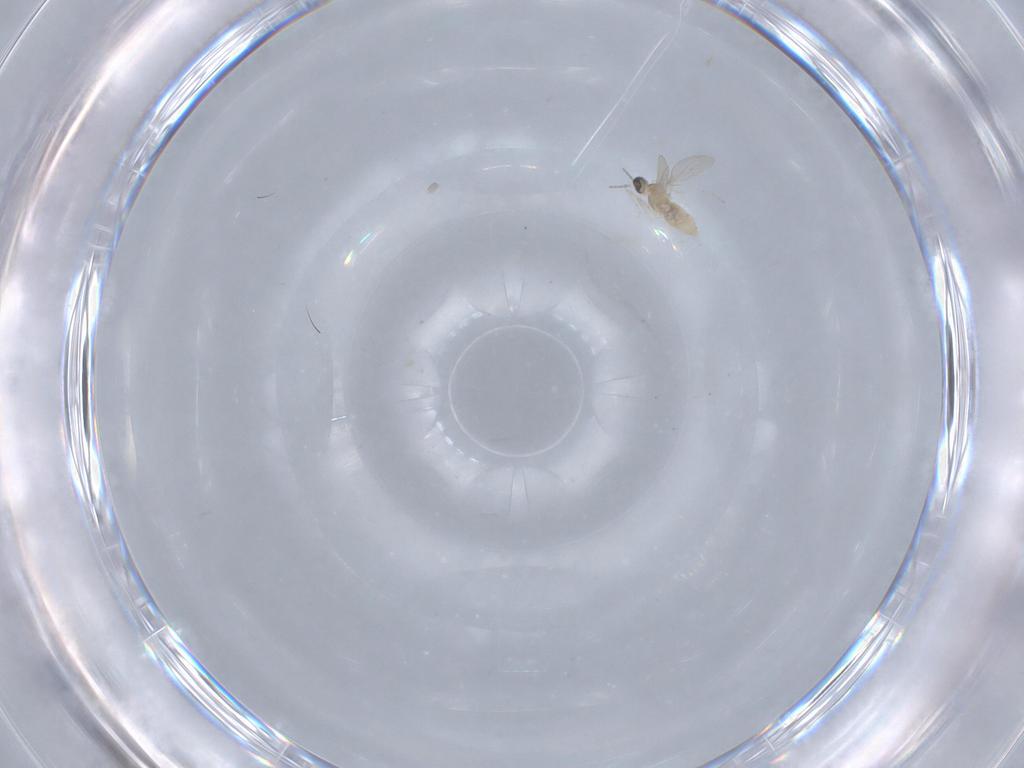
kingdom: Animalia
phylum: Arthropoda
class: Insecta
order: Diptera
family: Cecidomyiidae
